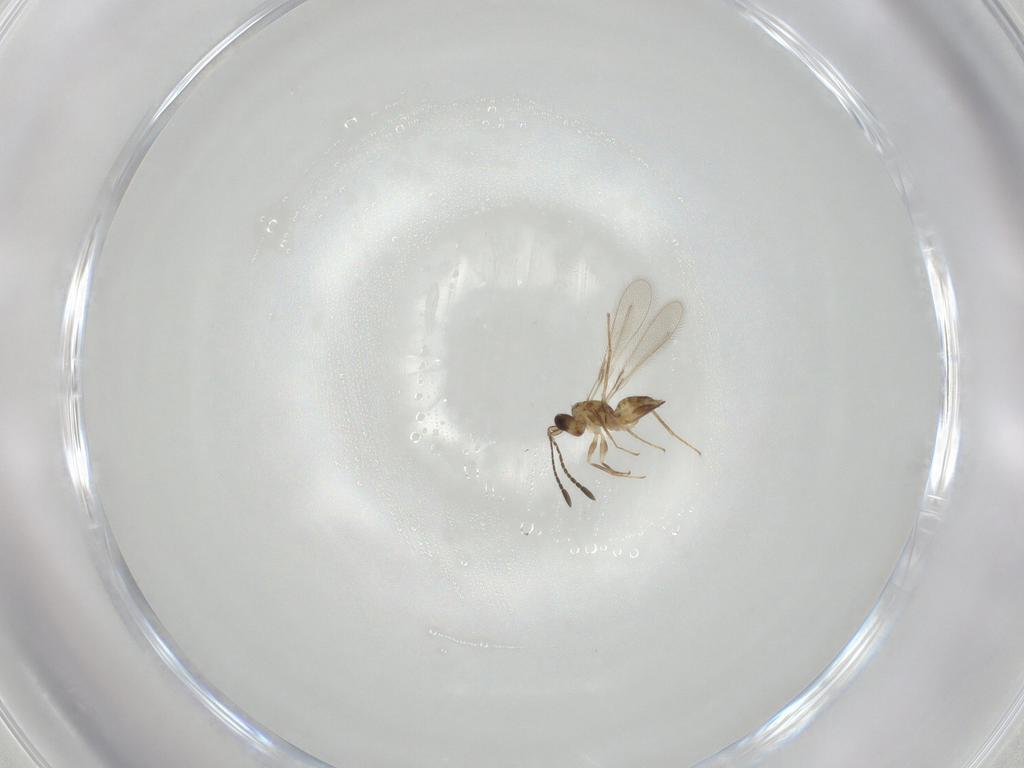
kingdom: Animalia
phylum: Arthropoda
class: Insecta
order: Hymenoptera
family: Mymaridae
